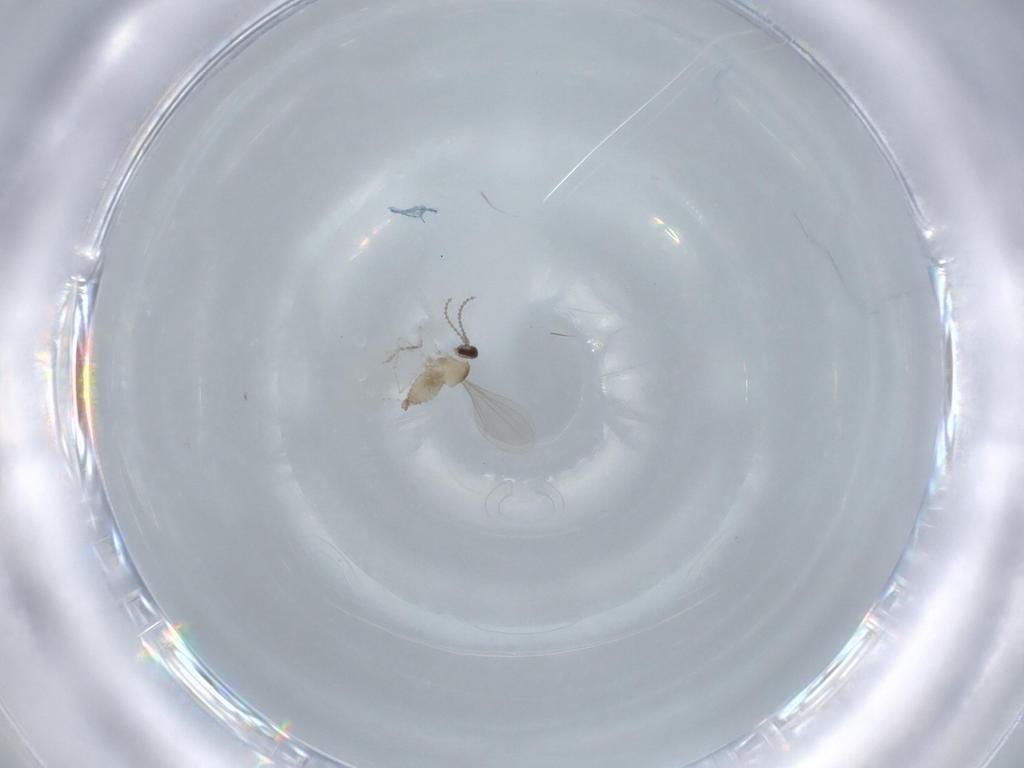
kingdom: Animalia
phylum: Arthropoda
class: Insecta
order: Diptera
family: Cecidomyiidae
